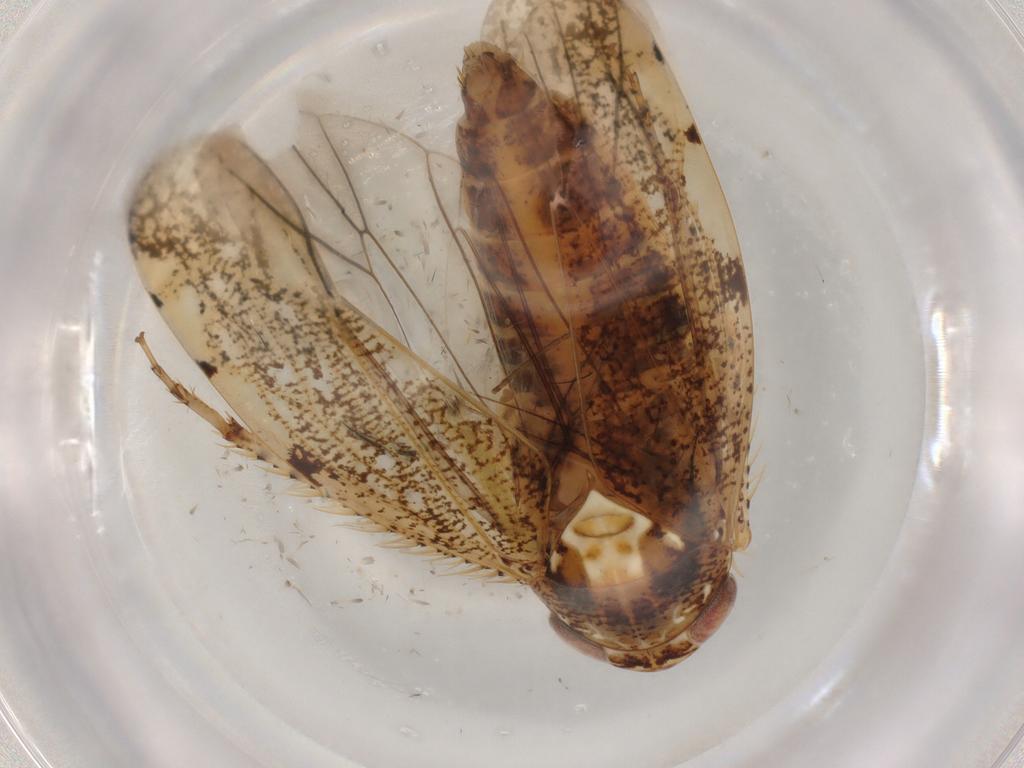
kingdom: Animalia
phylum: Arthropoda
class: Insecta
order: Hemiptera
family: Cicadellidae
